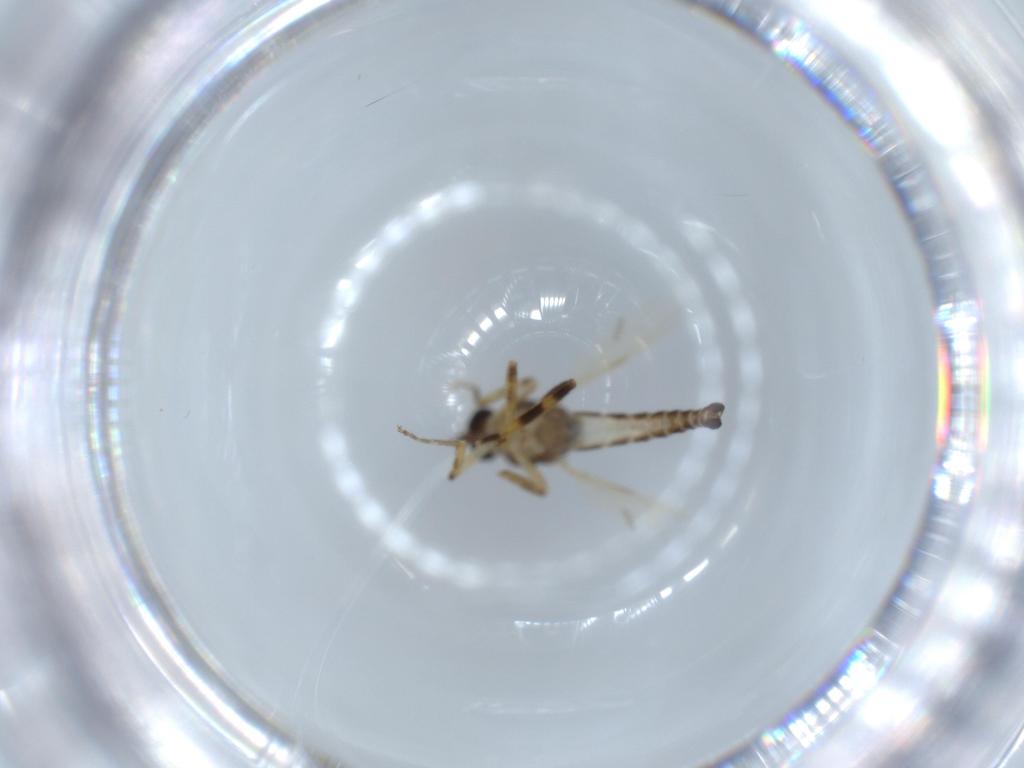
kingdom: Animalia
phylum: Arthropoda
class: Insecta
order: Diptera
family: Ceratopogonidae
